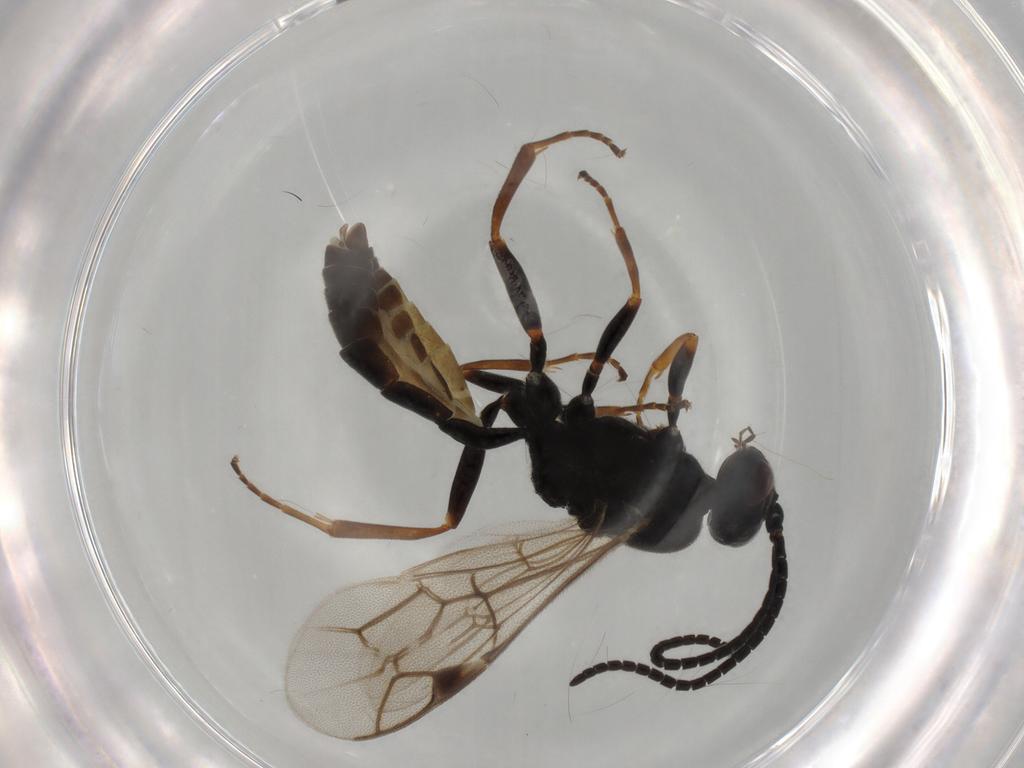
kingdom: Animalia
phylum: Arthropoda
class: Insecta
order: Hymenoptera
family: Ichneumonidae
